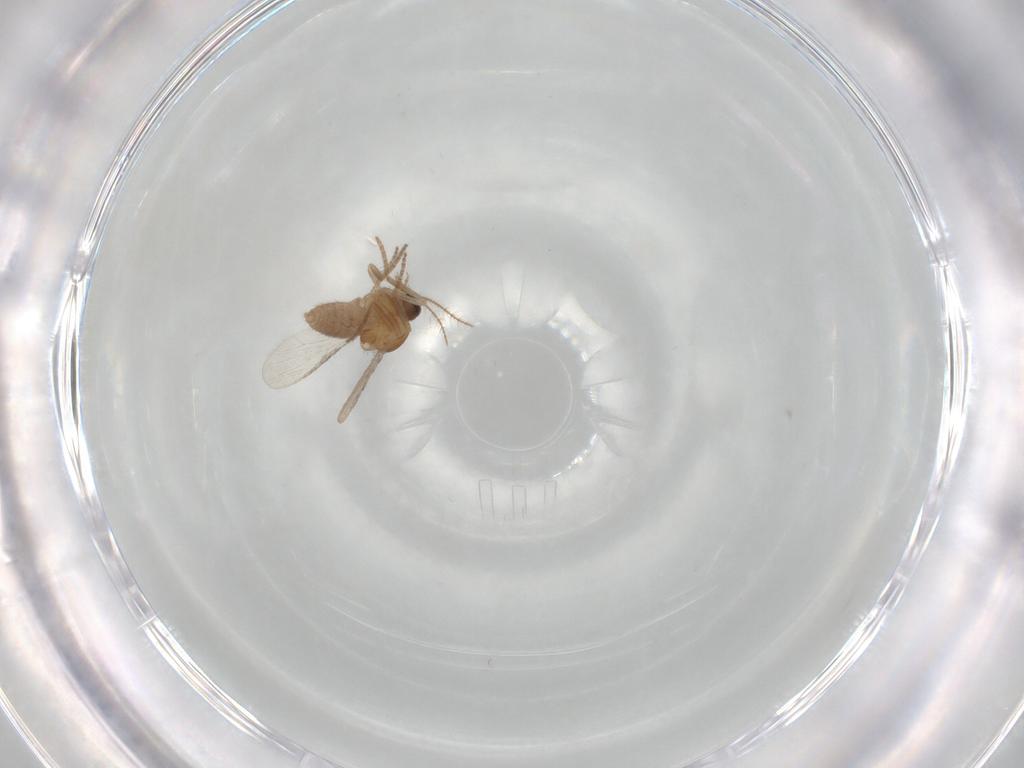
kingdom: Animalia
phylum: Arthropoda
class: Insecta
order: Diptera
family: Ceratopogonidae
